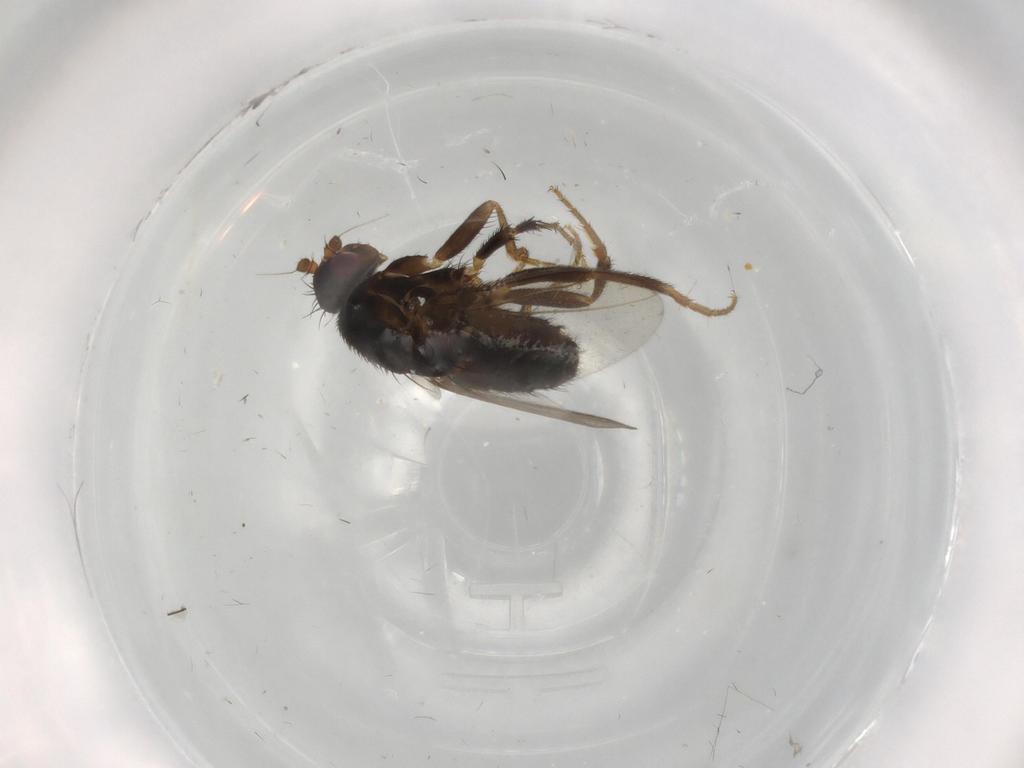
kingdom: Animalia
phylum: Arthropoda
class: Insecta
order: Diptera
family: Sphaeroceridae
